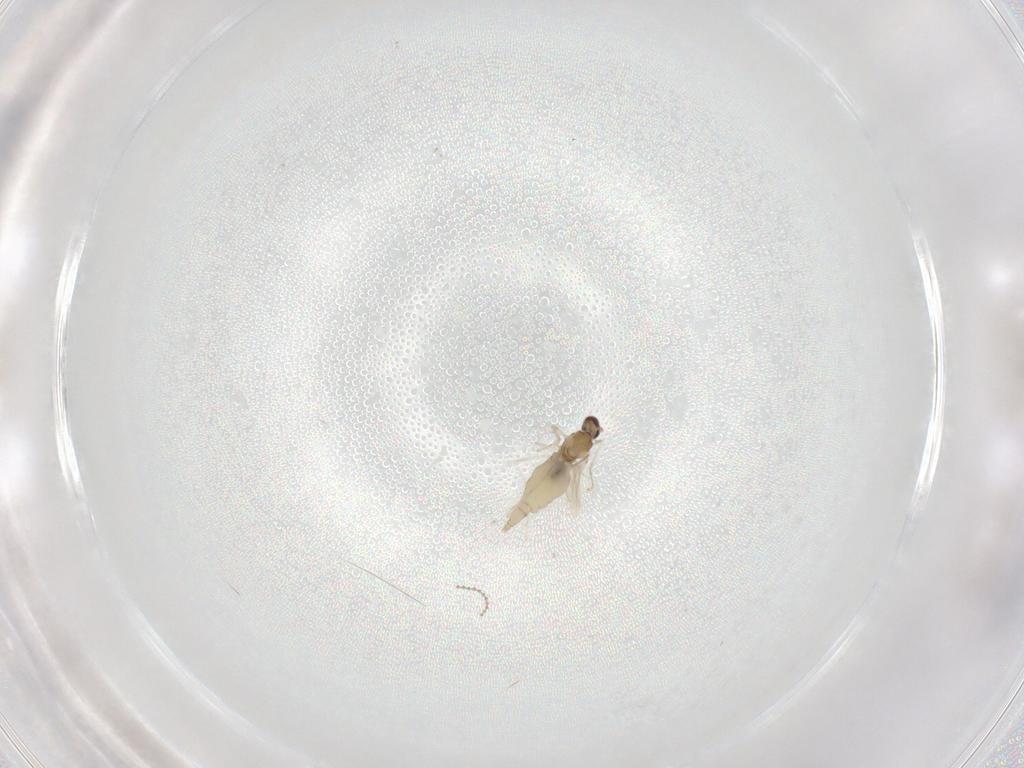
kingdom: Animalia
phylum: Arthropoda
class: Insecta
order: Diptera
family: Cecidomyiidae
